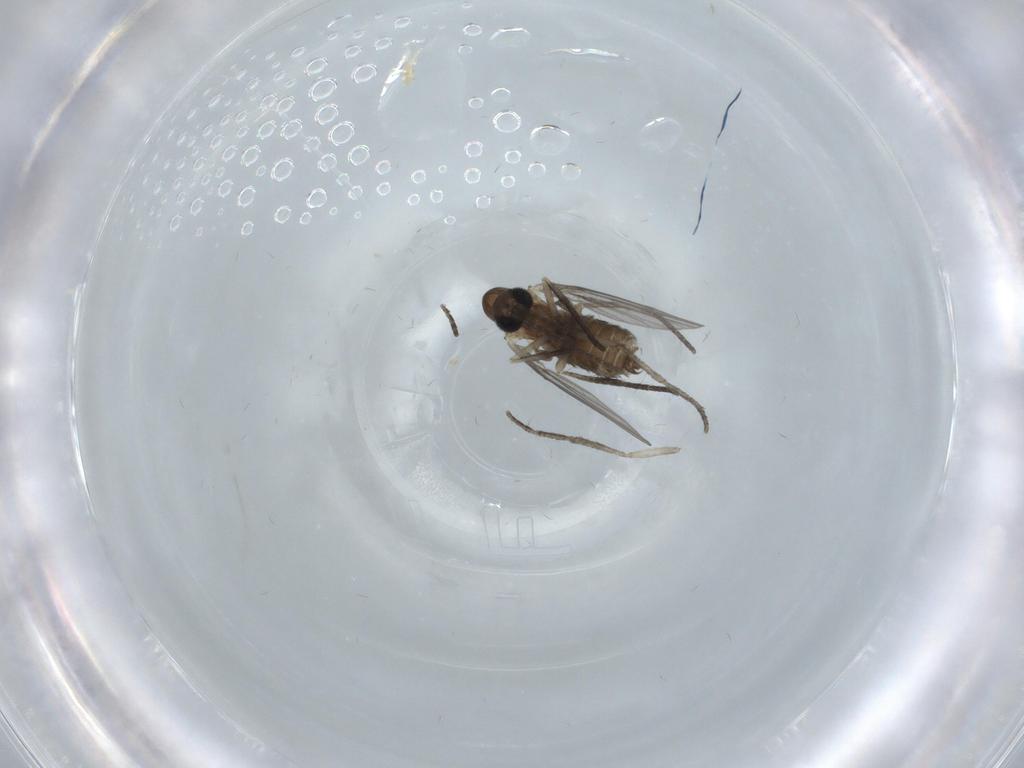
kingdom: Animalia
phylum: Arthropoda
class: Insecta
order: Diptera
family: Psychodidae
